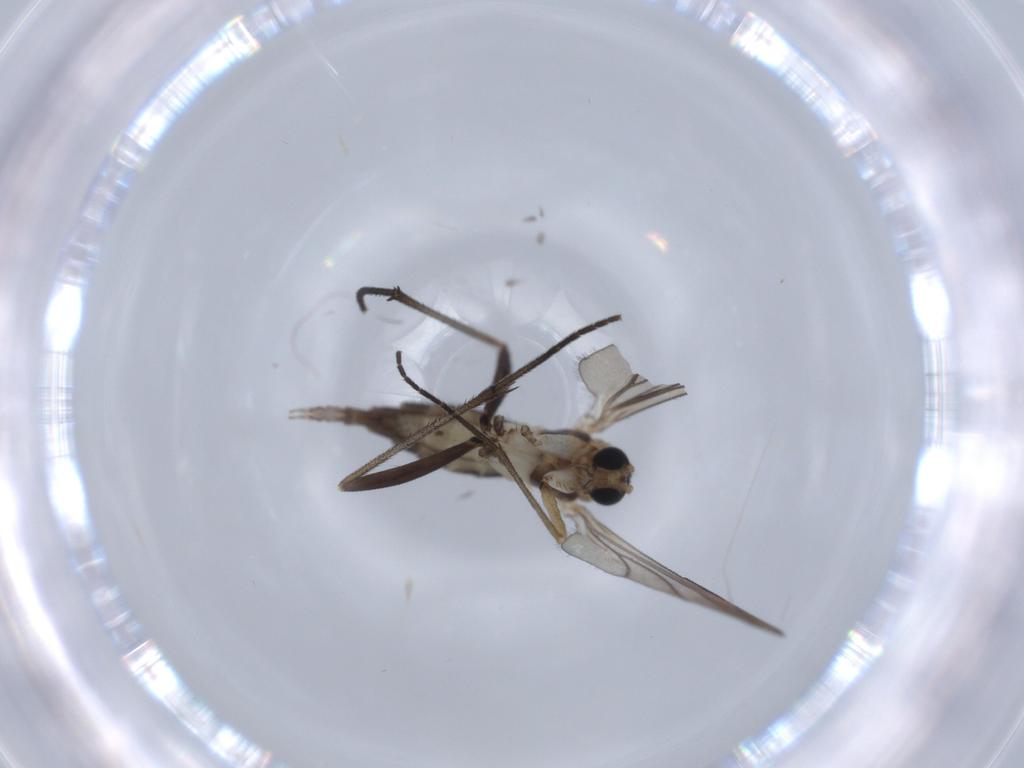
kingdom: Animalia
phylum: Arthropoda
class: Insecta
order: Diptera
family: Sciaridae
